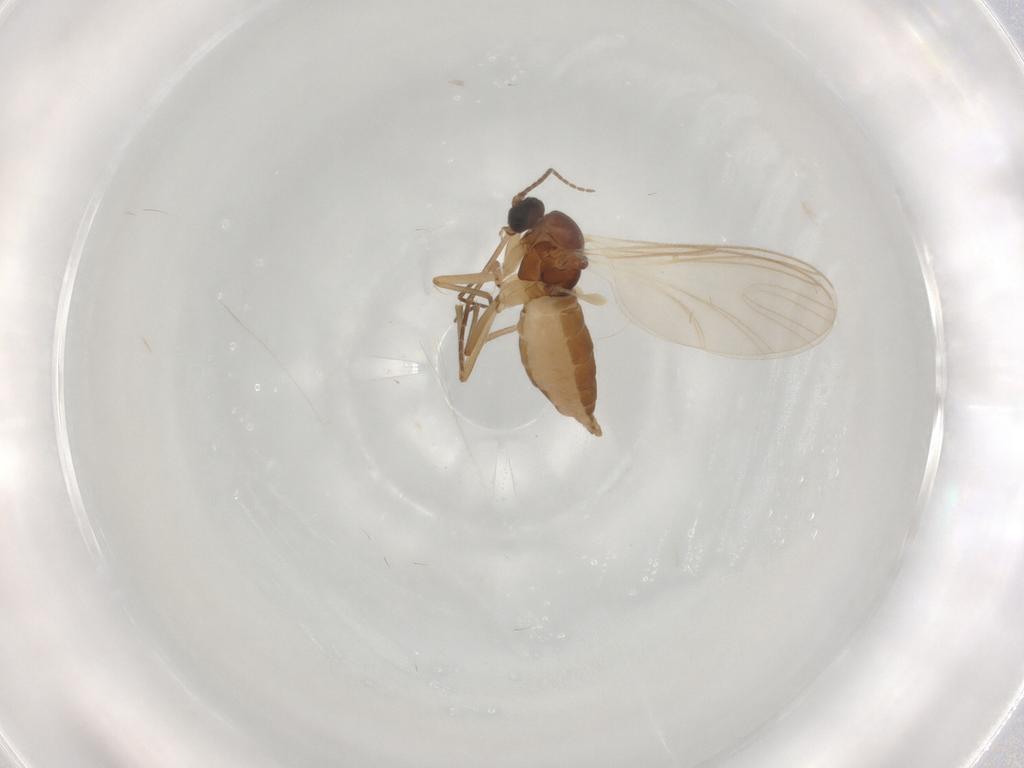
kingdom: Animalia
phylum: Arthropoda
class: Insecta
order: Diptera
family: Sciaridae
